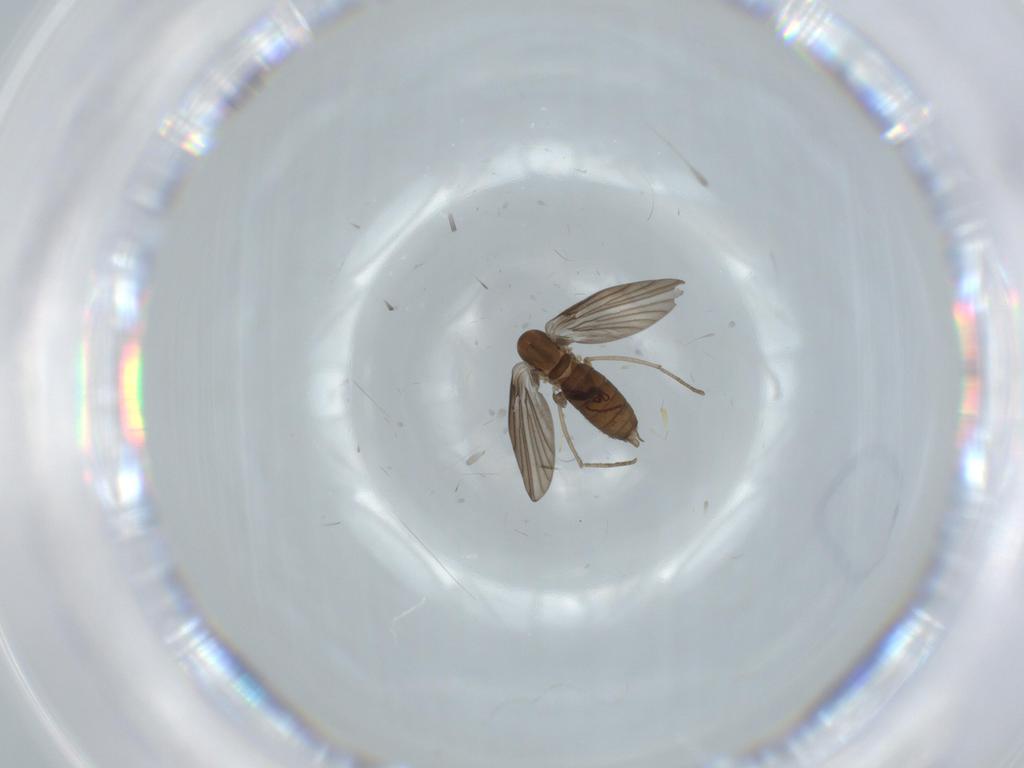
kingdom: Animalia
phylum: Arthropoda
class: Insecta
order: Diptera
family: Psychodidae
